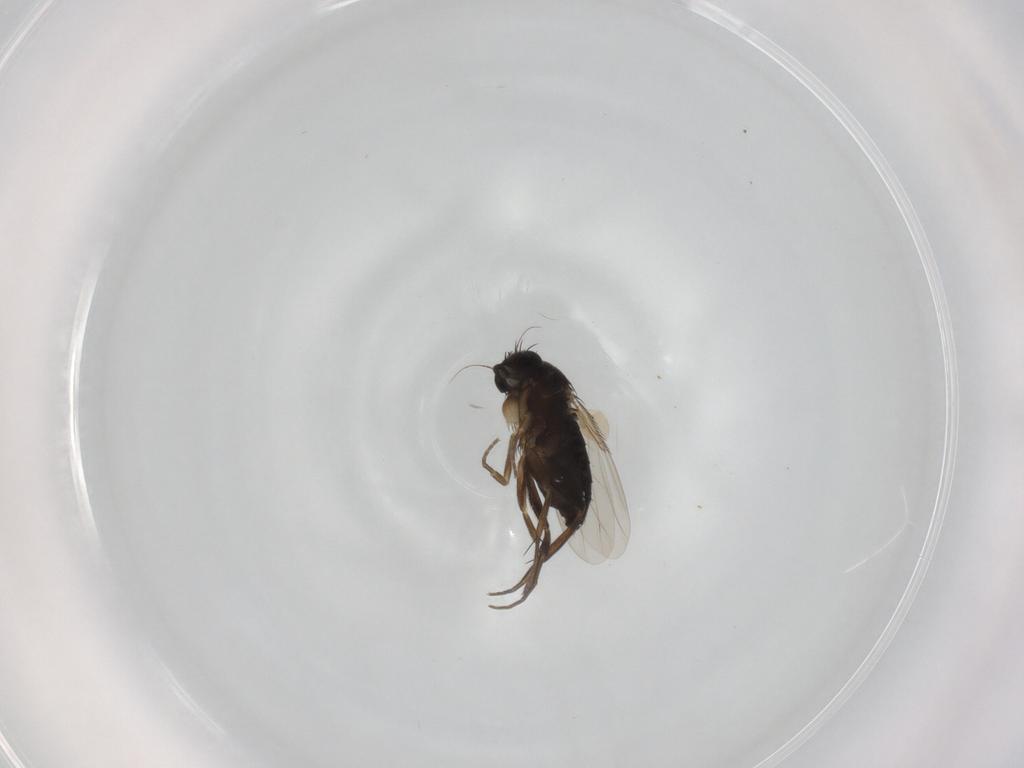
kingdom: Animalia
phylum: Arthropoda
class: Insecta
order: Diptera
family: Phoridae
